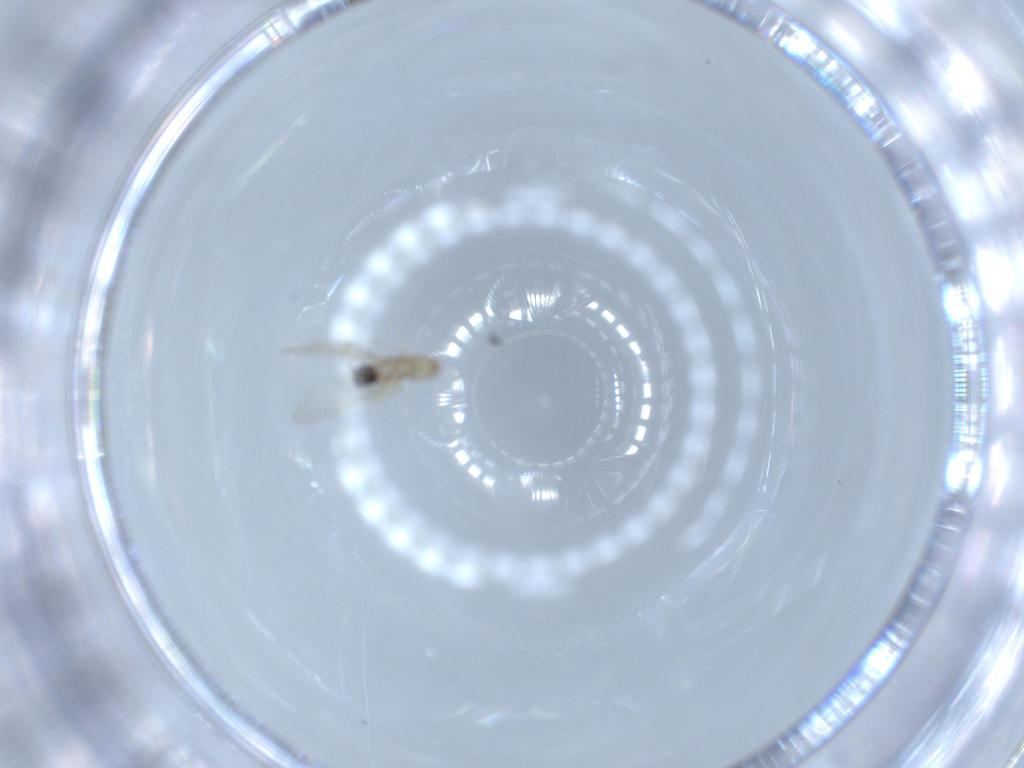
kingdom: Animalia
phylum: Arthropoda
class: Insecta
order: Diptera
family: Cecidomyiidae
